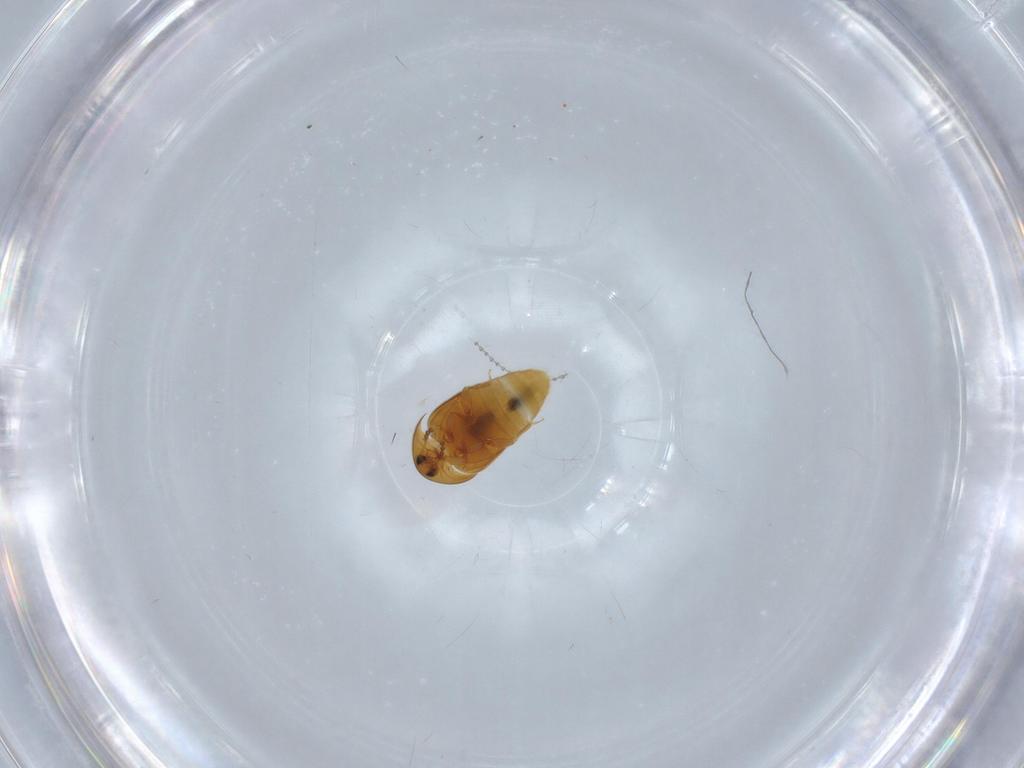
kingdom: Animalia
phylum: Arthropoda
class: Insecta
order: Coleoptera
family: Corylophidae
